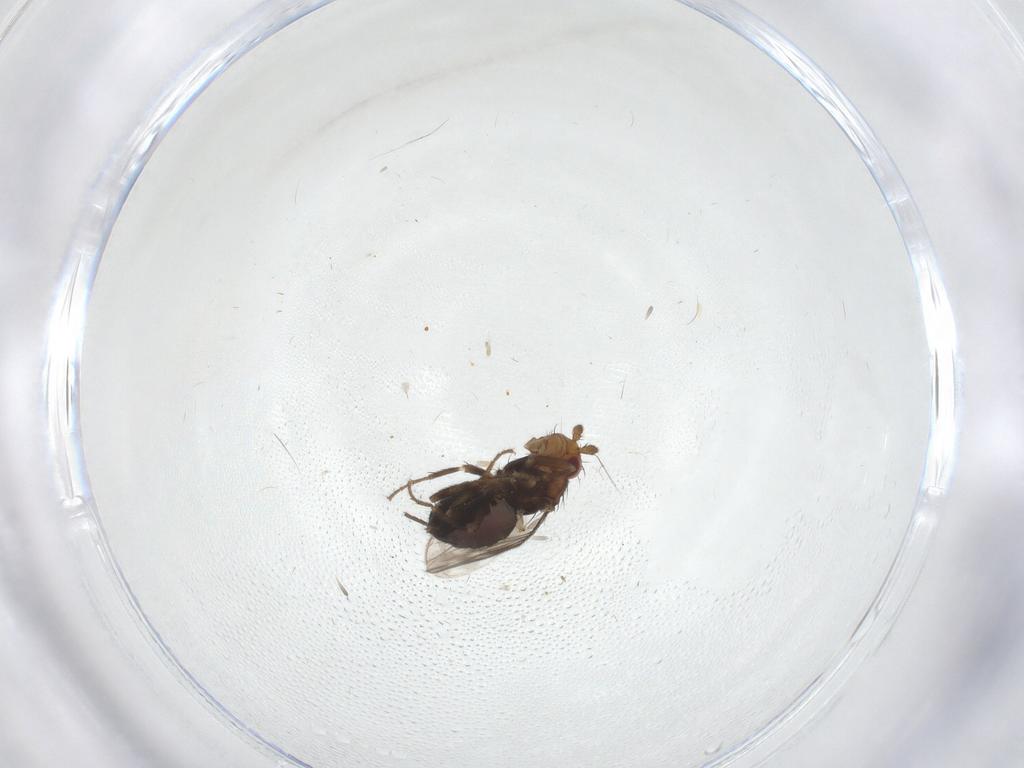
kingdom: Animalia
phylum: Arthropoda
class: Insecta
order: Diptera
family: Sphaeroceridae
